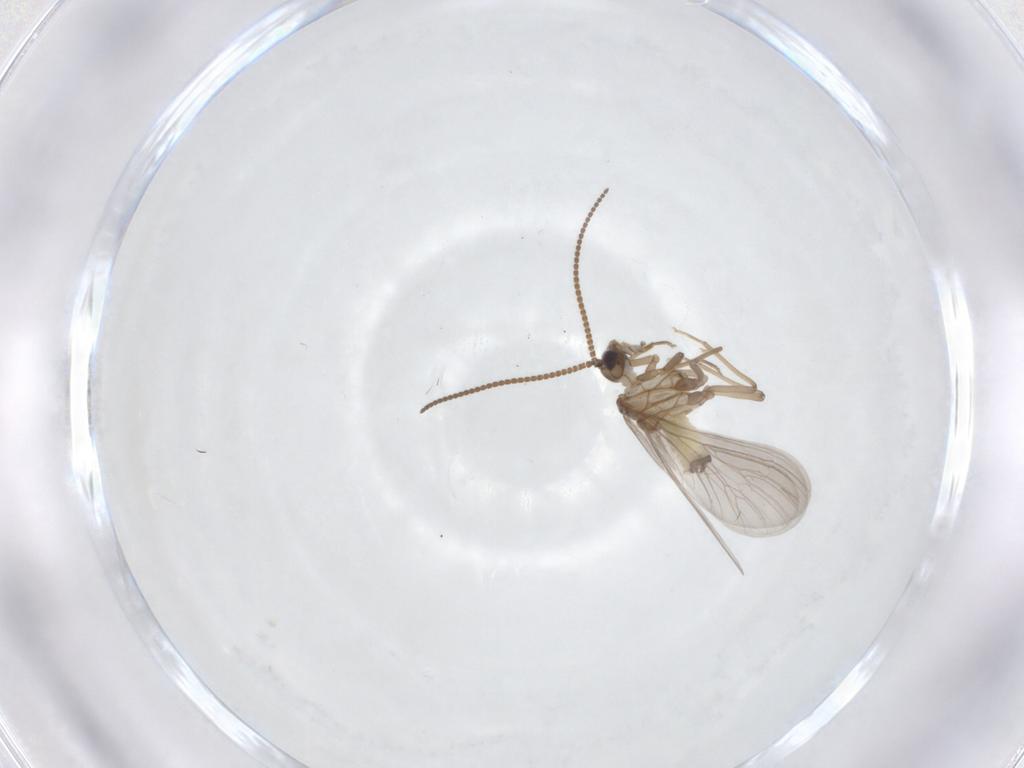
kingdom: Animalia
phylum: Arthropoda
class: Insecta
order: Neuroptera
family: Coniopterygidae
